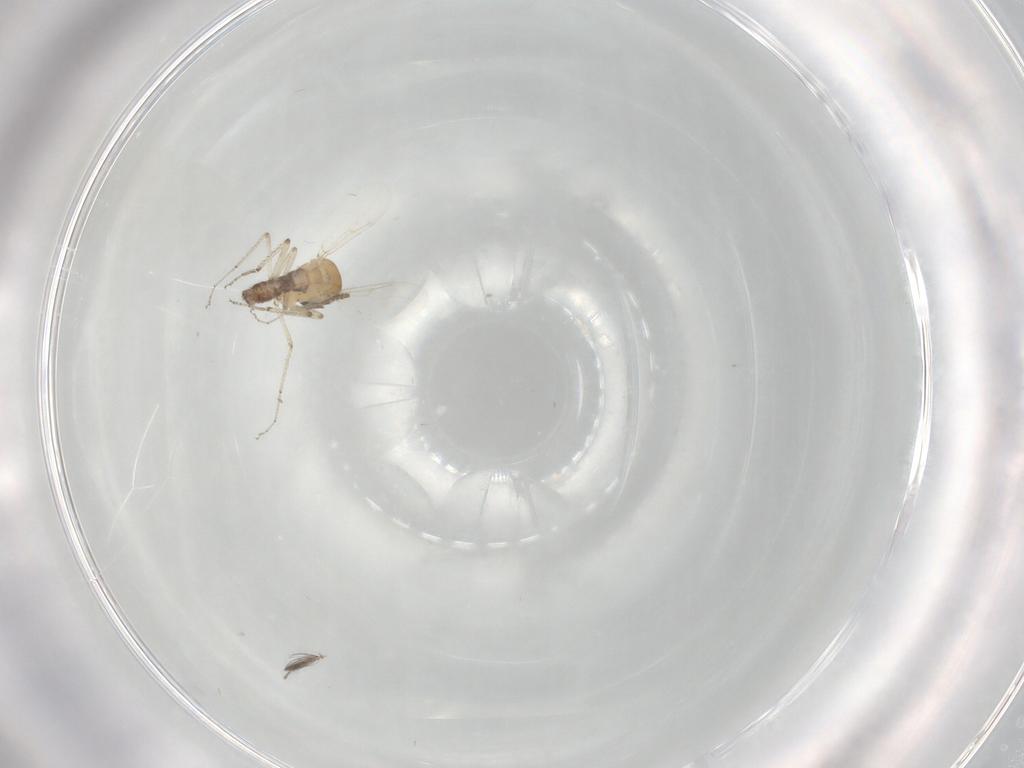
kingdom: Animalia
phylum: Arthropoda
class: Insecta
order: Diptera
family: Ceratopogonidae
